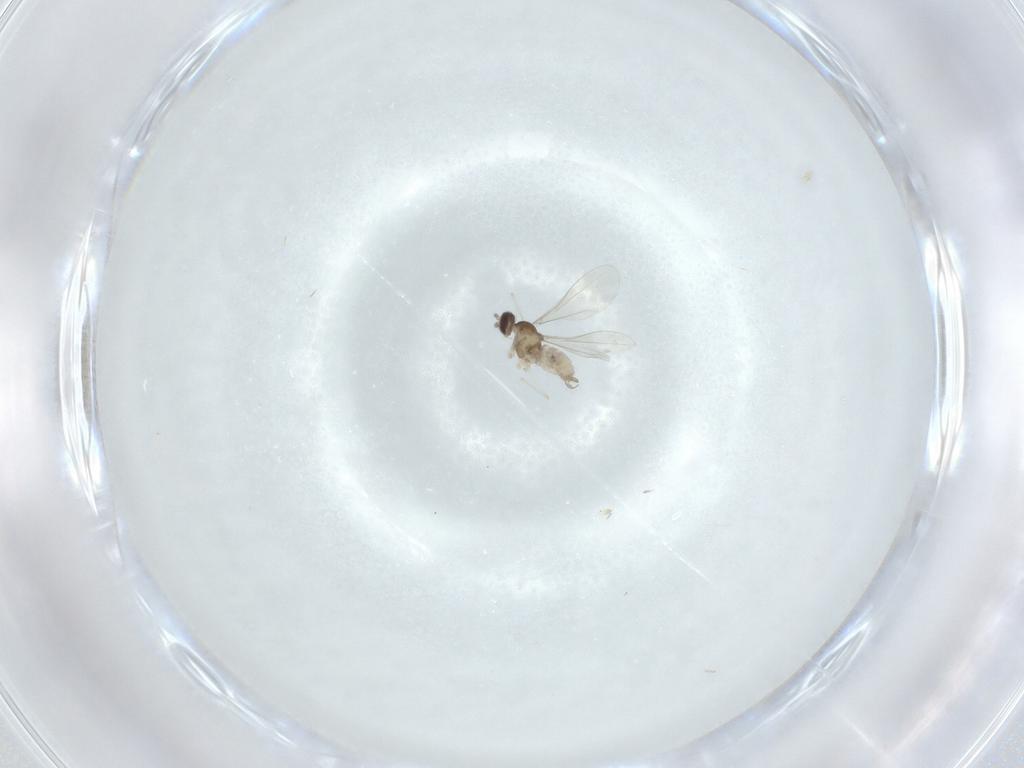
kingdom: Animalia
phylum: Arthropoda
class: Insecta
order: Diptera
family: Cecidomyiidae
